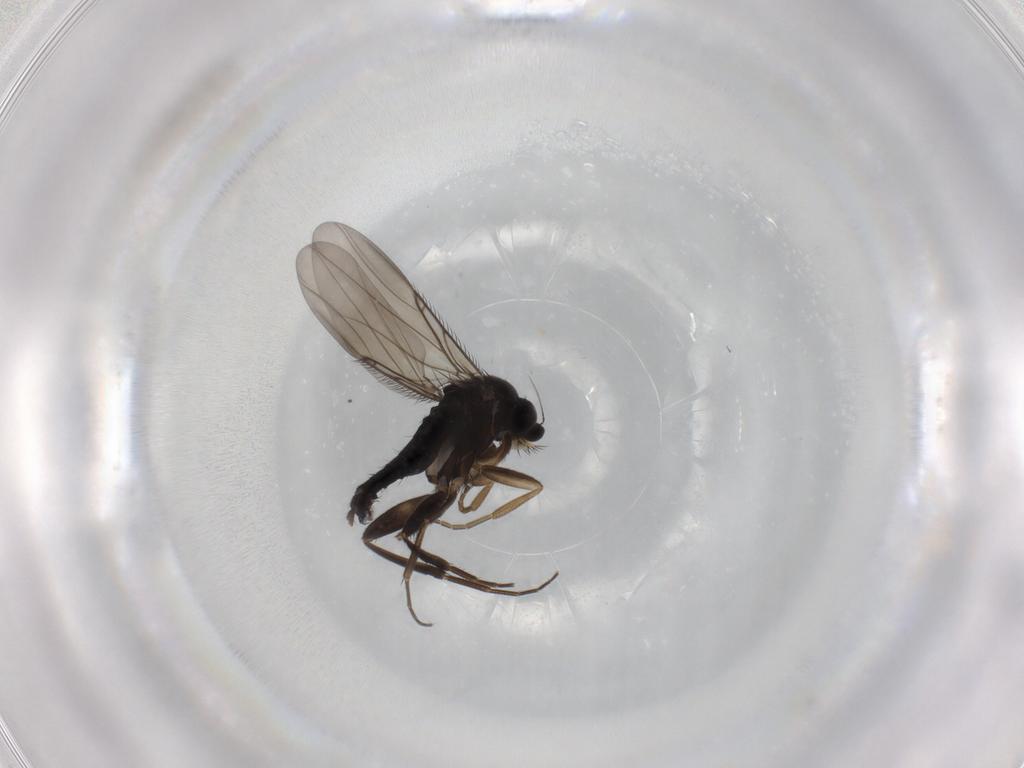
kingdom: Animalia
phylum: Arthropoda
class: Insecta
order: Diptera
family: Phoridae
